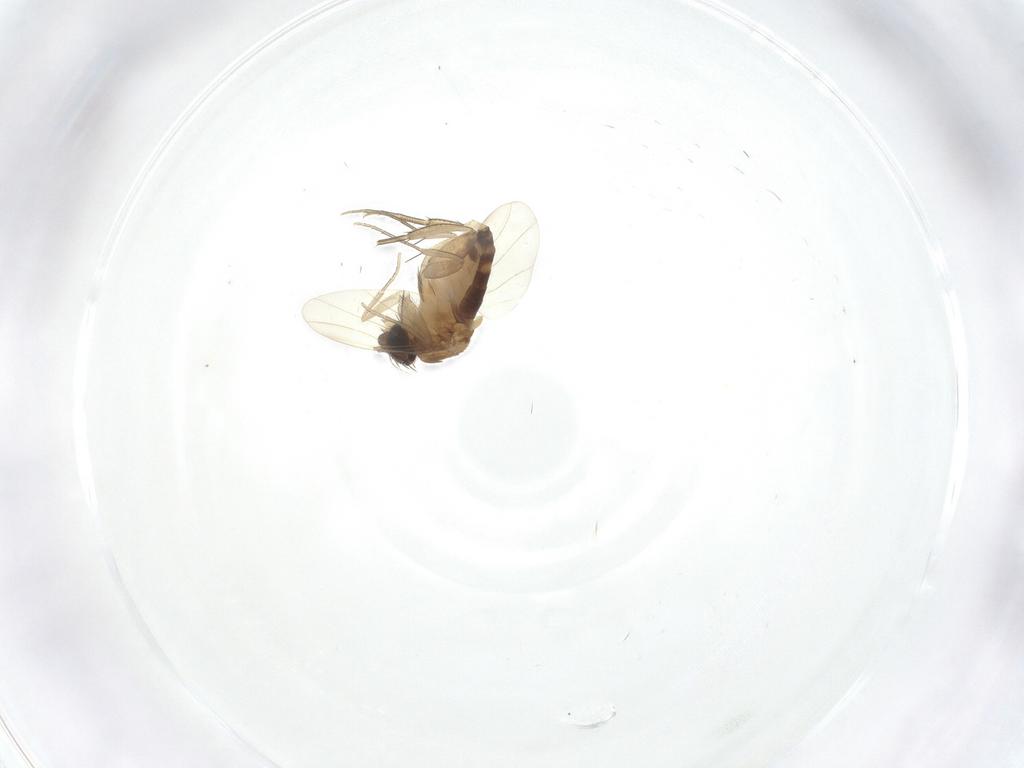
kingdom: Animalia
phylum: Arthropoda
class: Insecta
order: Diptera
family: Phoridae
